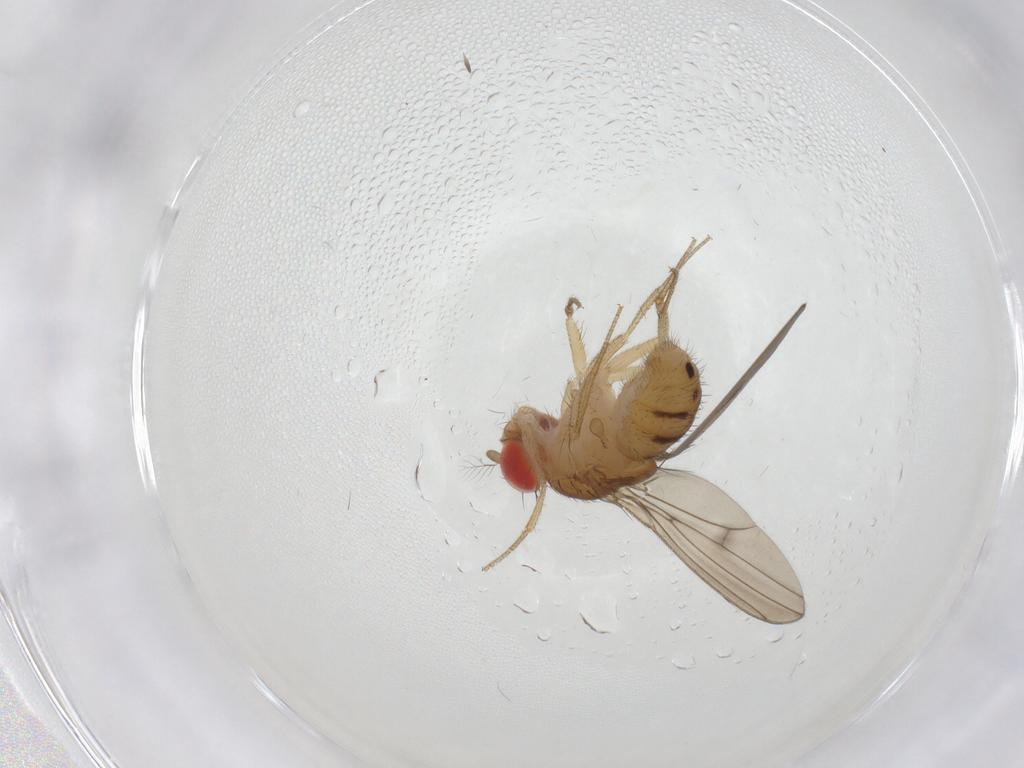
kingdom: Animalia
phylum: Arthropoda
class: Insecta
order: Diptera
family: Drosophilidae
